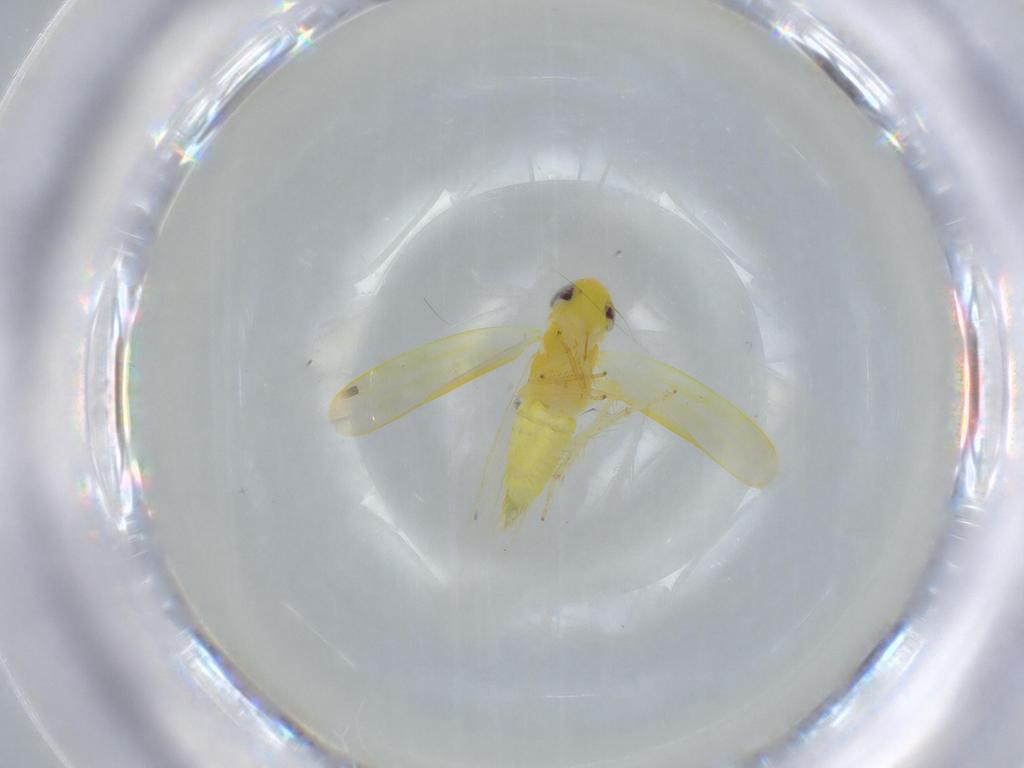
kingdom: Animalia
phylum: Arthropoda
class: Insecta
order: Hemiptera
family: Cicadellidae
